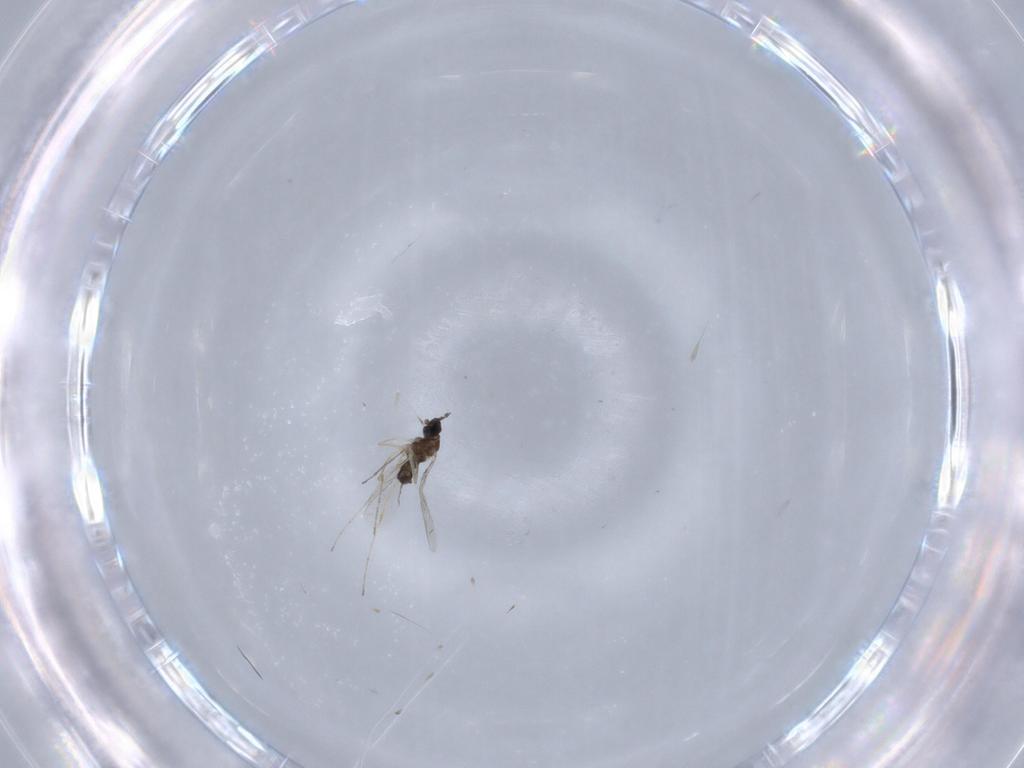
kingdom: Animalia
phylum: Arthropoda
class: Insecta
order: Diptera
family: Cecidomyiidae
